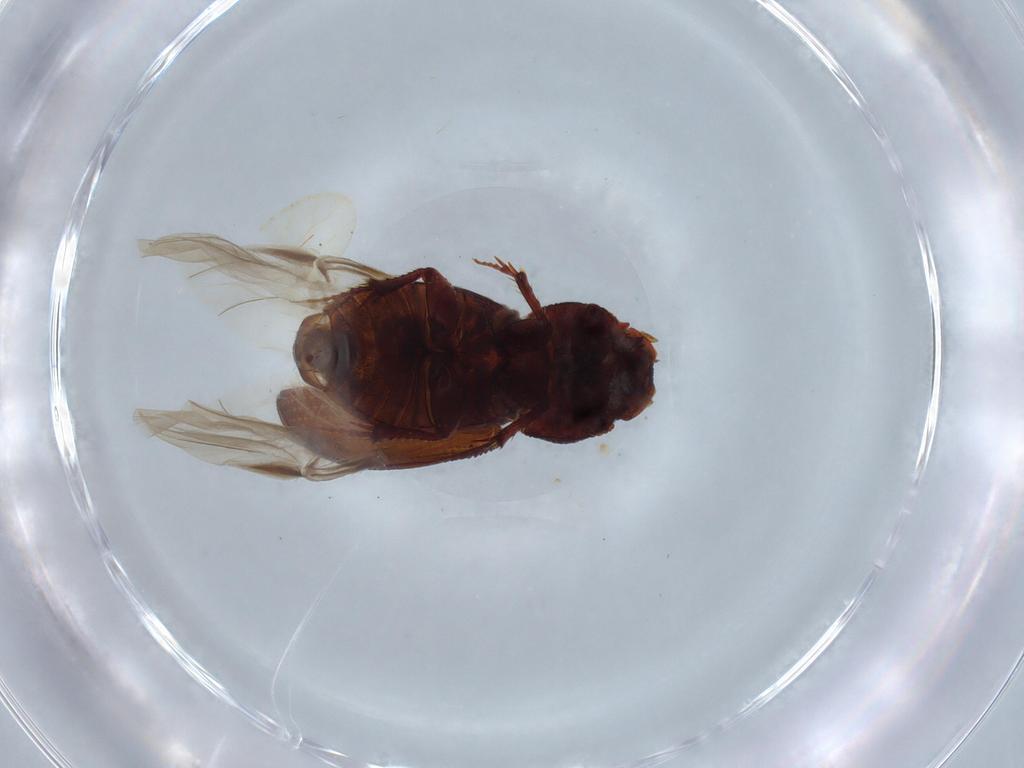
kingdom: Animalia
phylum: Arthropoda
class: Insecta
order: Coleoptera
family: Scarabaeidae
